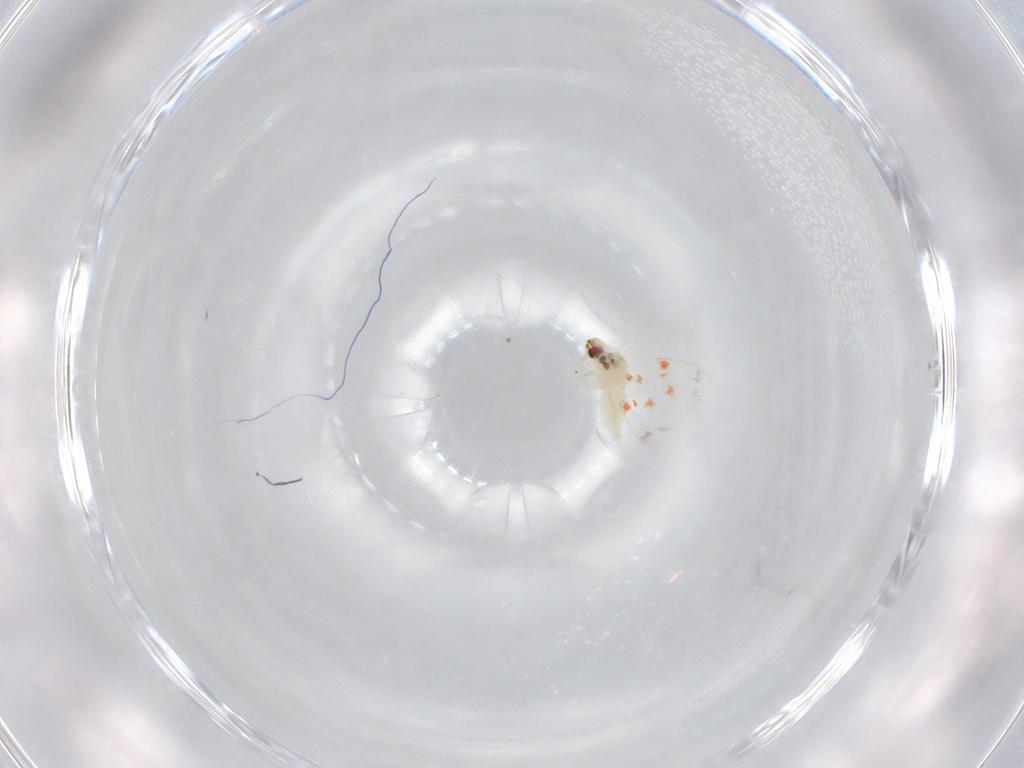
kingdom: Animalia
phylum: Arthropoda
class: Insecta
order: Hemiptera
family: Aleyrodidae
